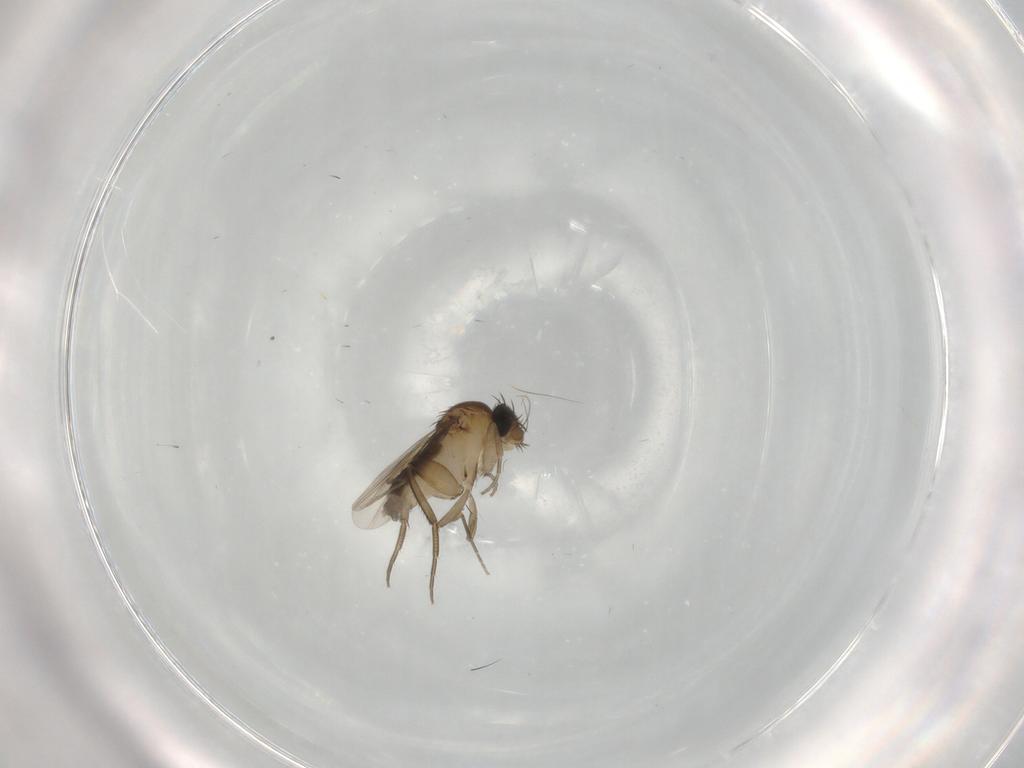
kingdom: Animalia
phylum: Arthropoda
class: Insecta
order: Diptera
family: Phoridae
